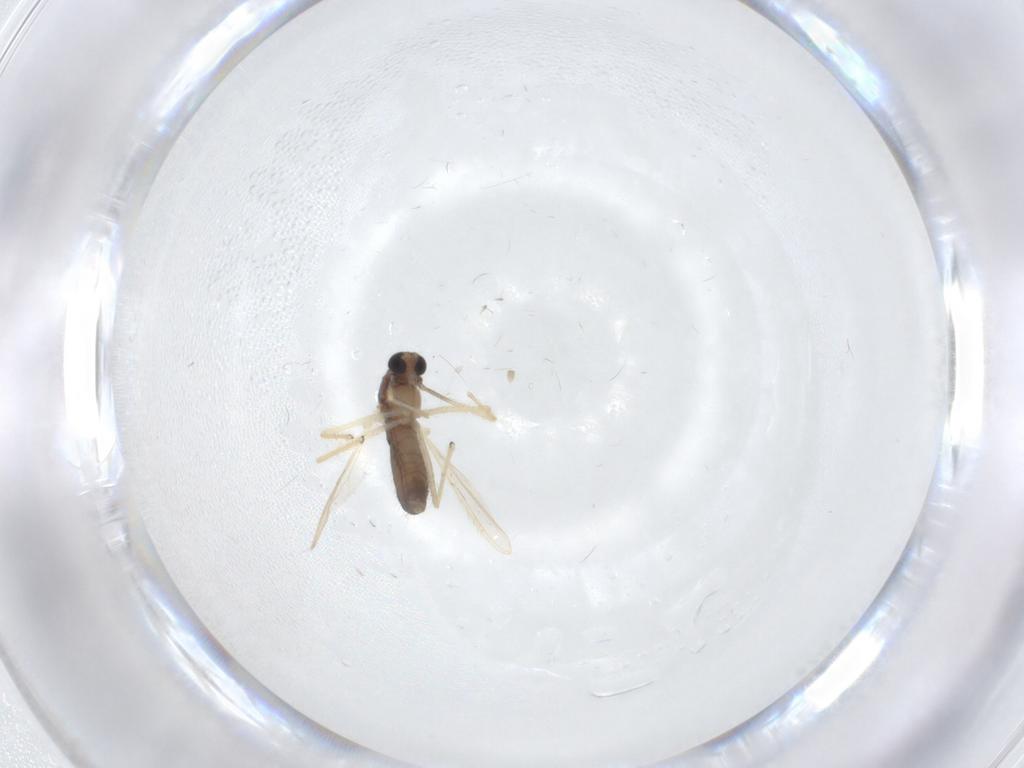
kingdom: Animalia
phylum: Arthropoda
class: Insecta
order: Diptera
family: Chironomidae
